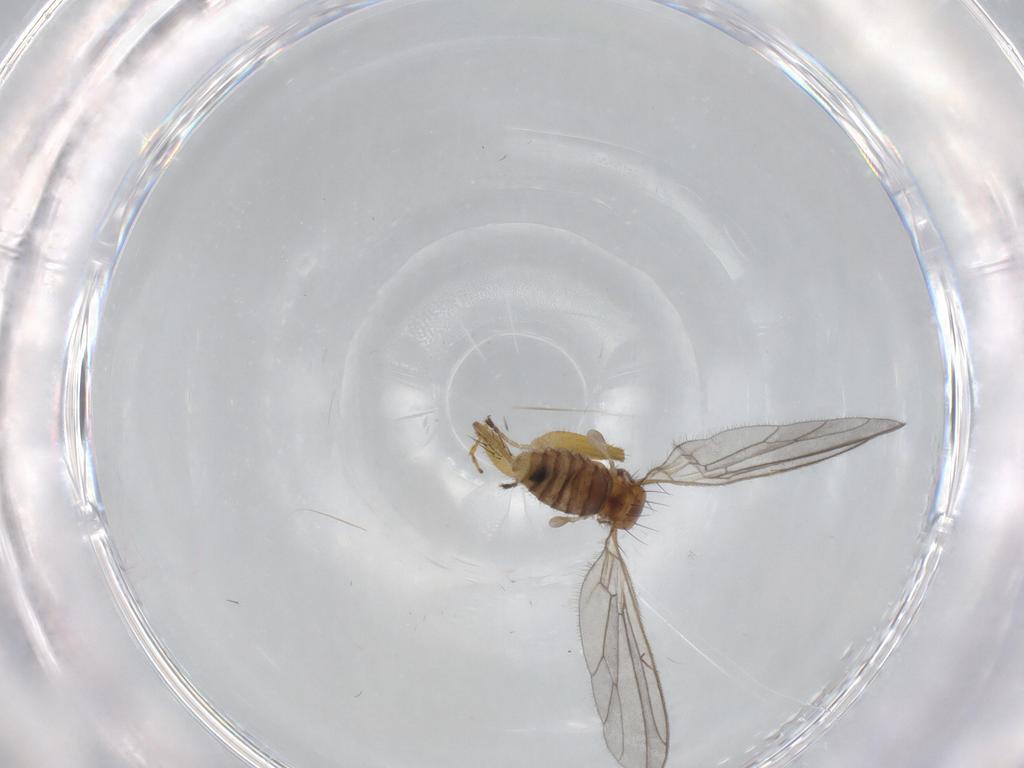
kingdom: Animalia
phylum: Arthropoda
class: Insecta
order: Diptera
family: Empididae
